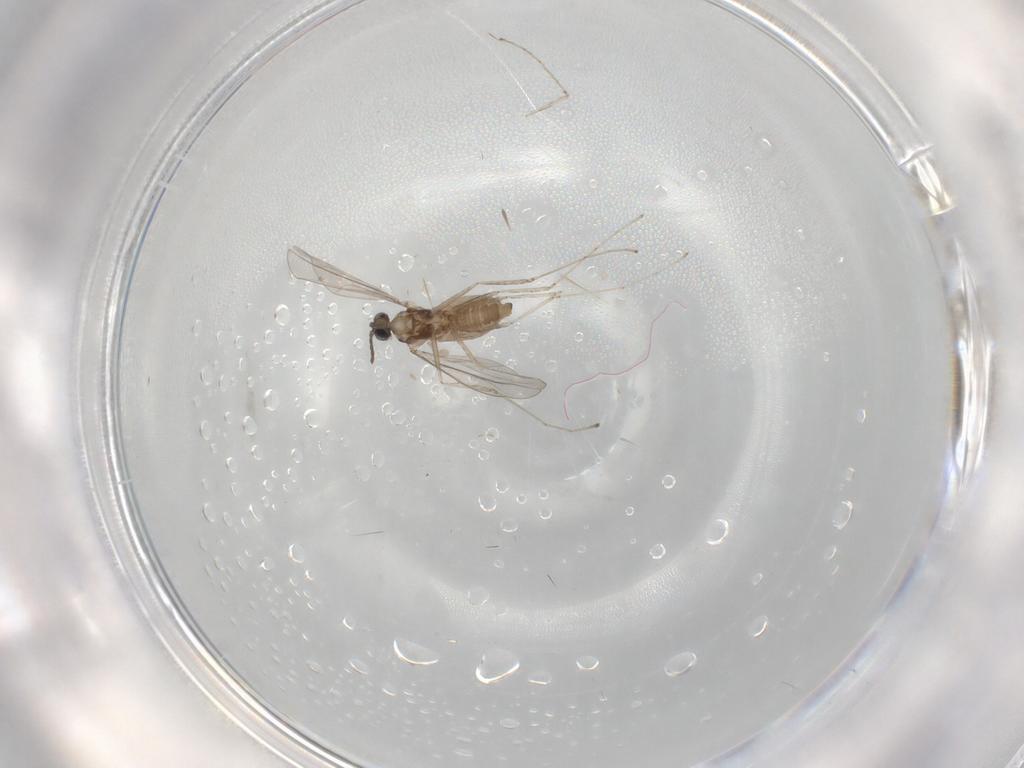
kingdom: Animalia
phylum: Arthropoda
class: Insecta
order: Diptera
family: Cecidomyiidae
